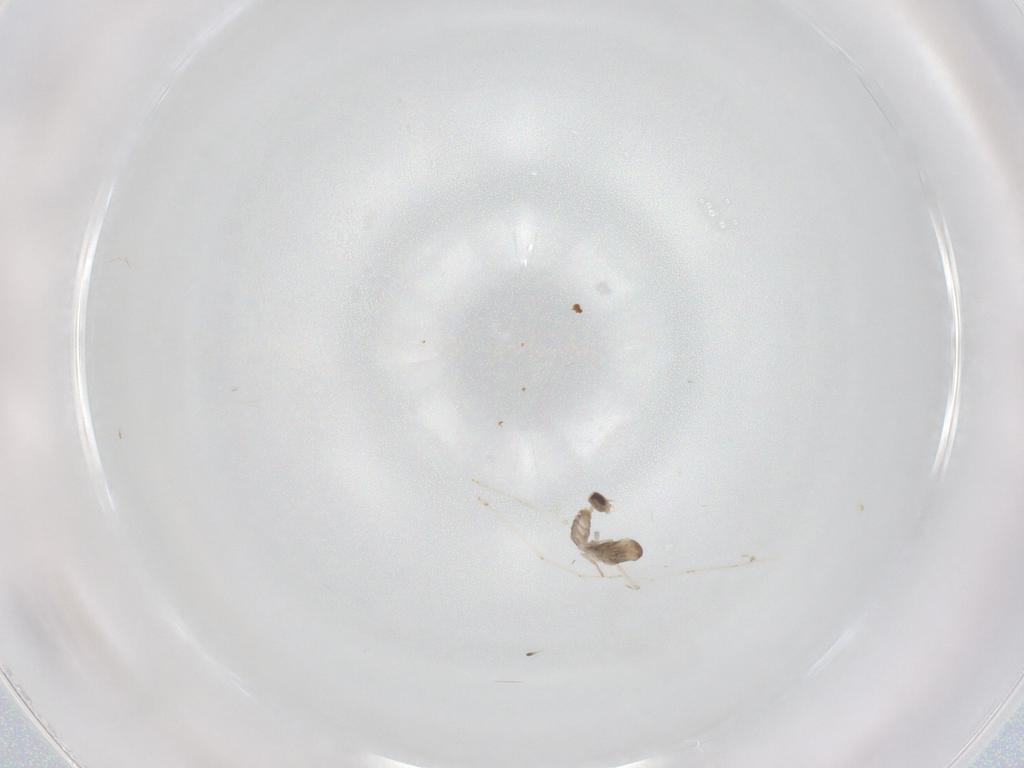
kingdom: Animalia
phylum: Arthropoda
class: Insecta
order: Diptera
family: Cecidomyiidae
